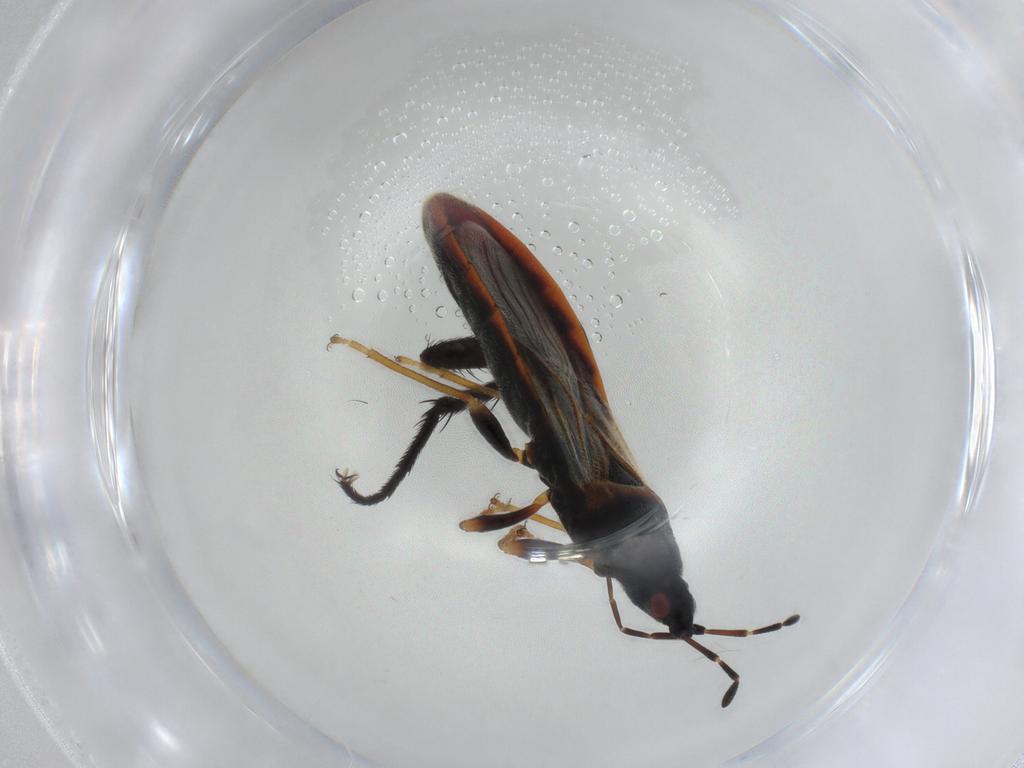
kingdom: Animalia
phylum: Arthropoda
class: Insecta
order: Hemiptera
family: Blissidae
